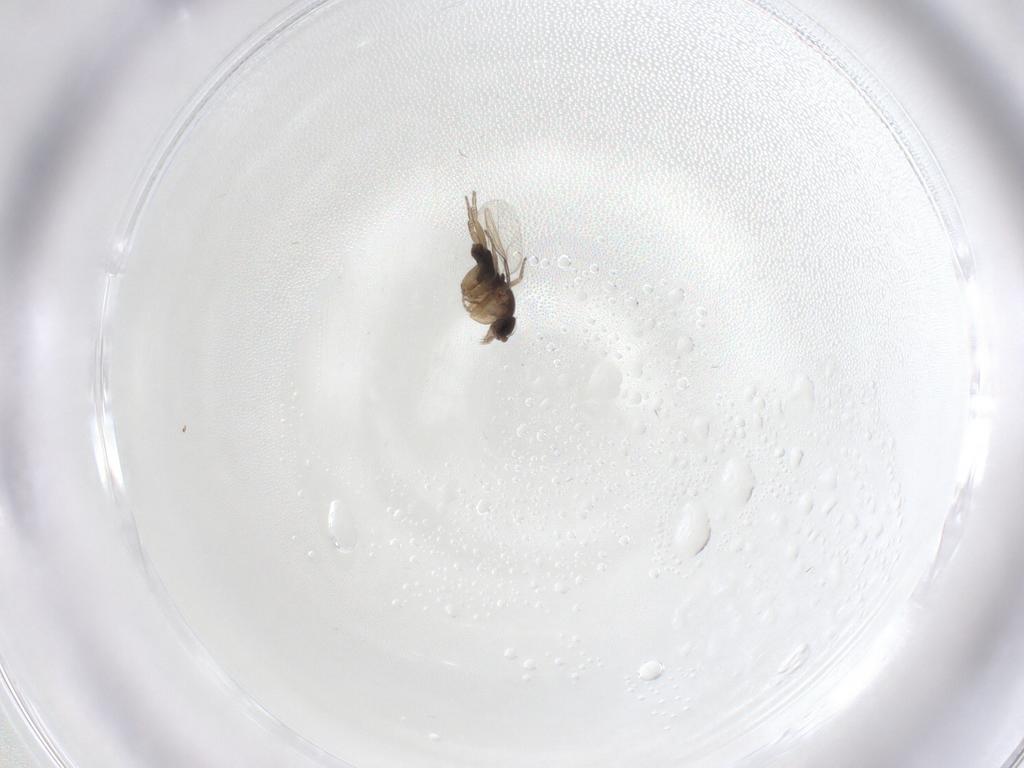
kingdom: Animalia
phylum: Arthropoda
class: Insecta
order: Diptera
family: Phoridae
